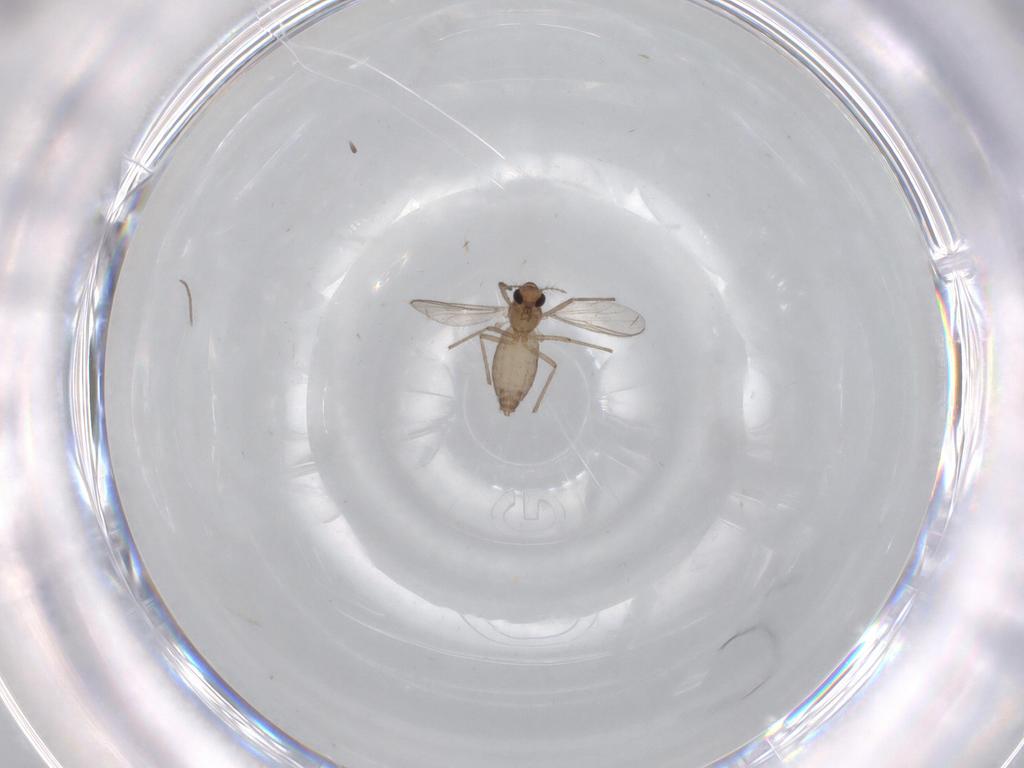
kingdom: Animalia
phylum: Arthropoda
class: Insecta
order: Diptera
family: Chironomidae
